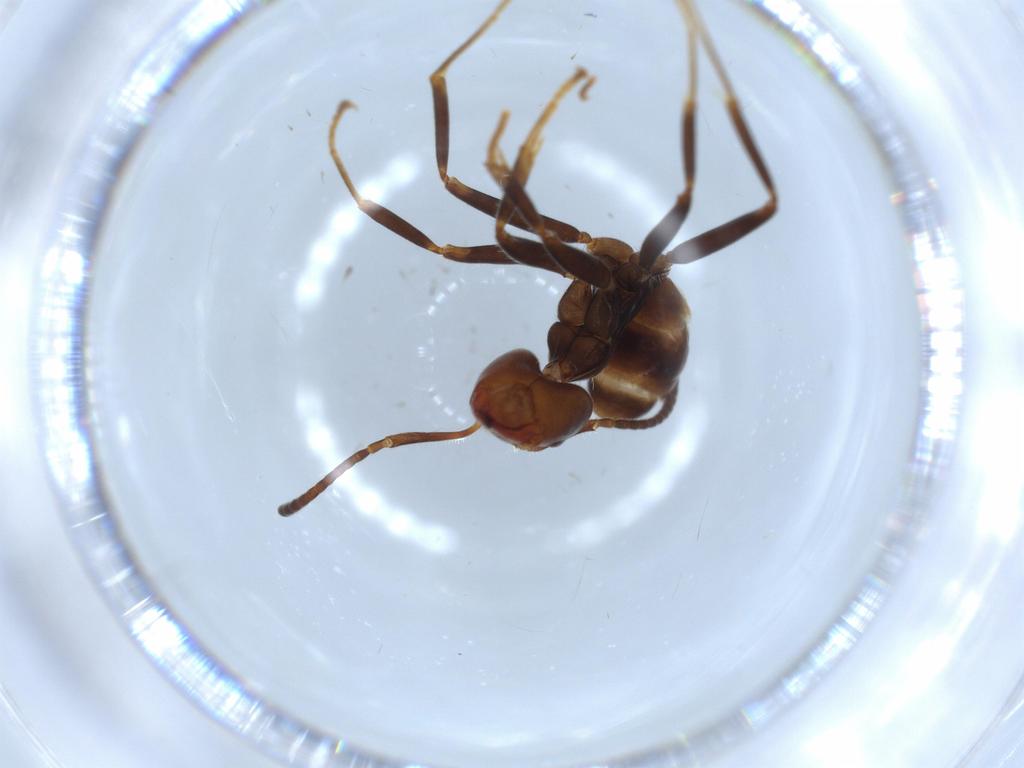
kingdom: Animalia
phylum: Arthropoda
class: Insecta
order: Hymenoptera
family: Formicidae
